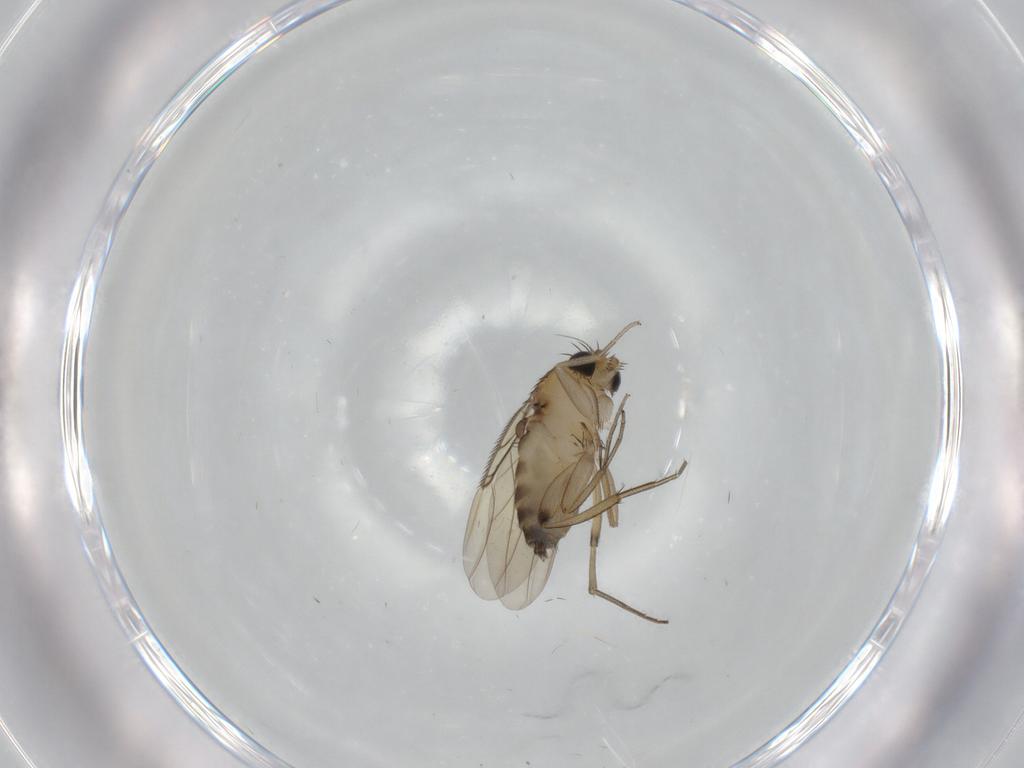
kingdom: Animalia
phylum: Arthropoda
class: Insecta
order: Diptera
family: Phoridae
